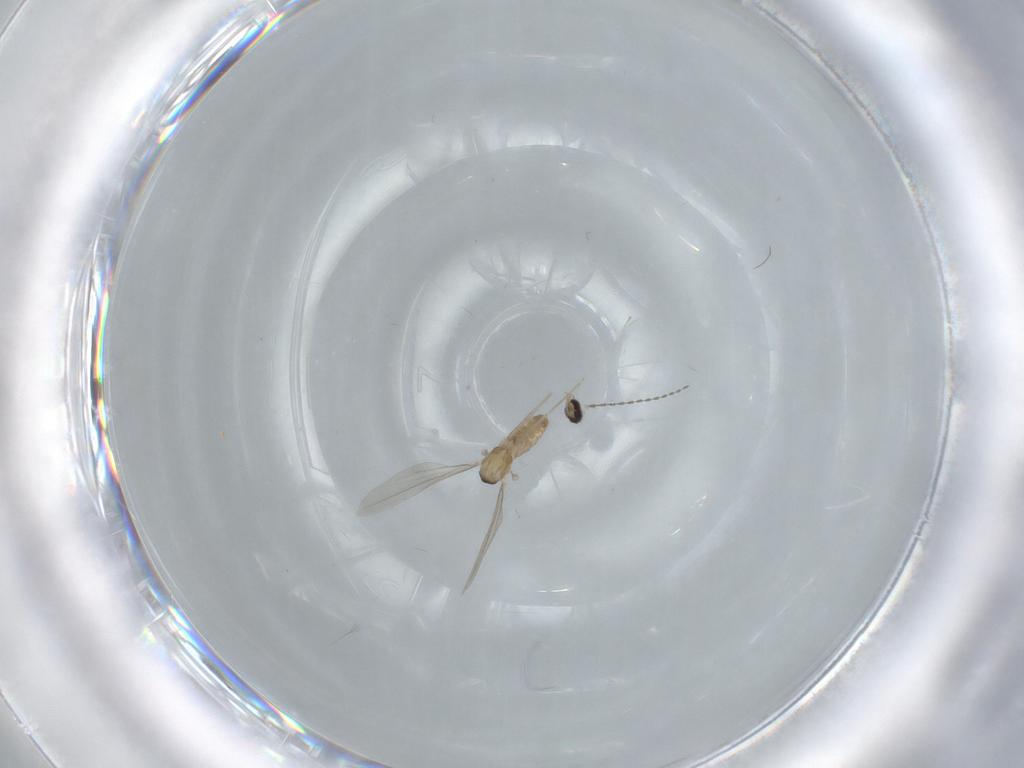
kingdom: Animalia
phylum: Arthropoda
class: Insecta
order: Diptera
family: Cecidomyiidae
